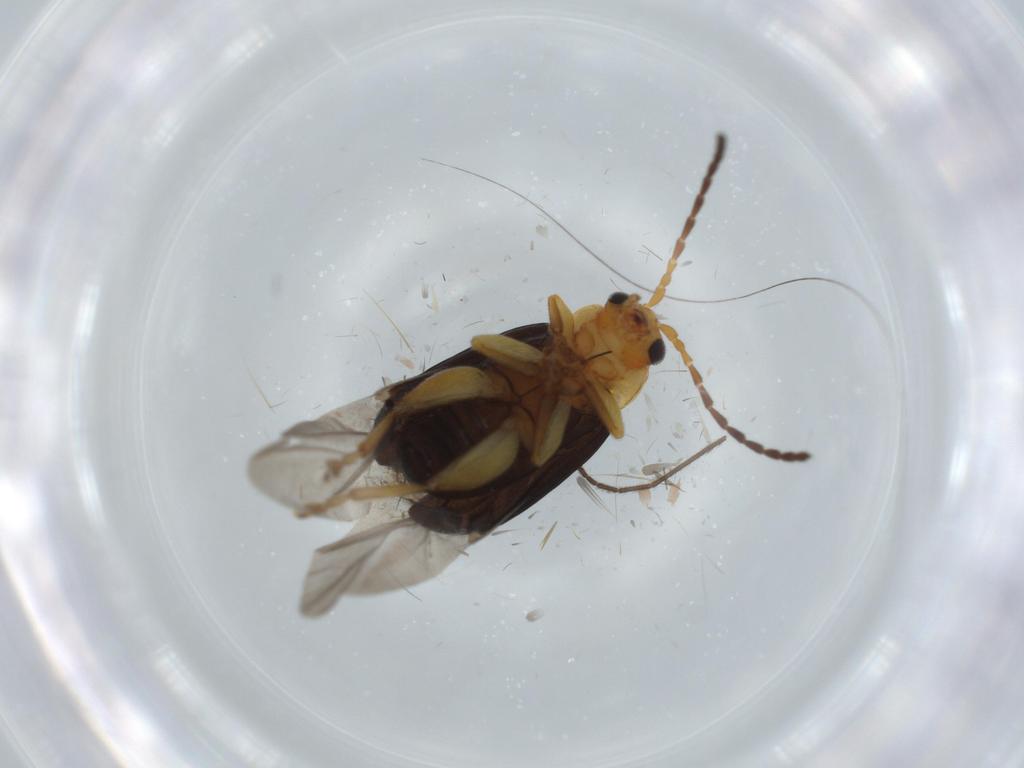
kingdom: Animalia
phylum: Arthropoda
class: Insecta
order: Coleoptera
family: Chrysomelidae
